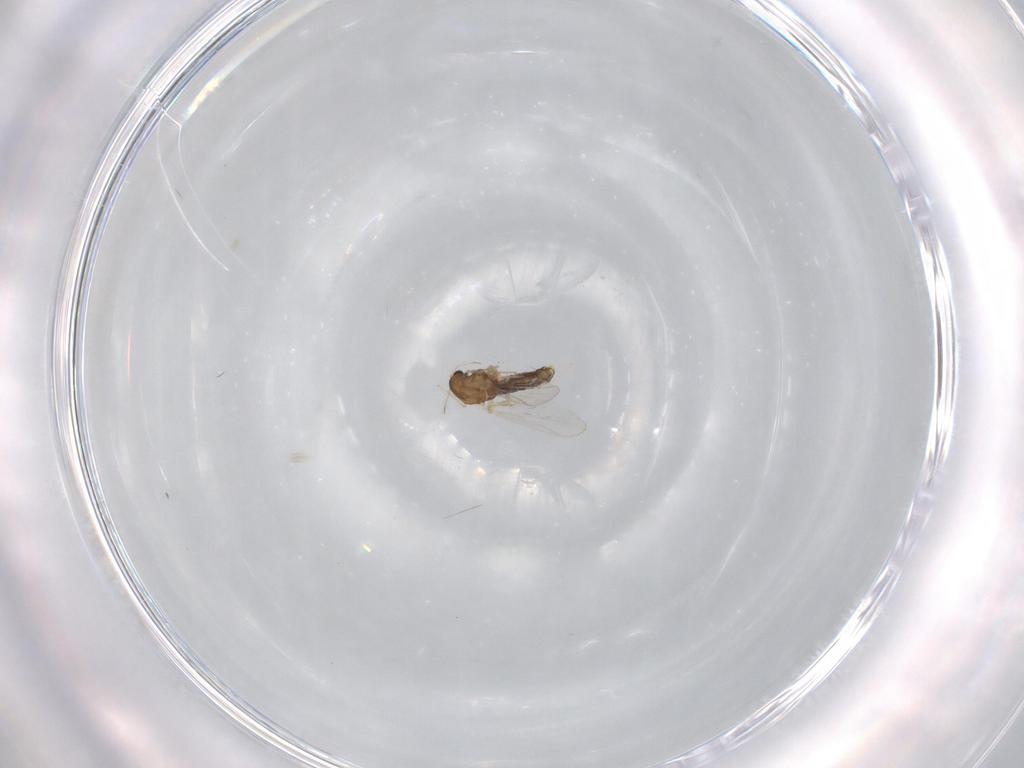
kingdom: Animalia
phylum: Arthropoda
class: Insecta
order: Diptera
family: Chironomidae
